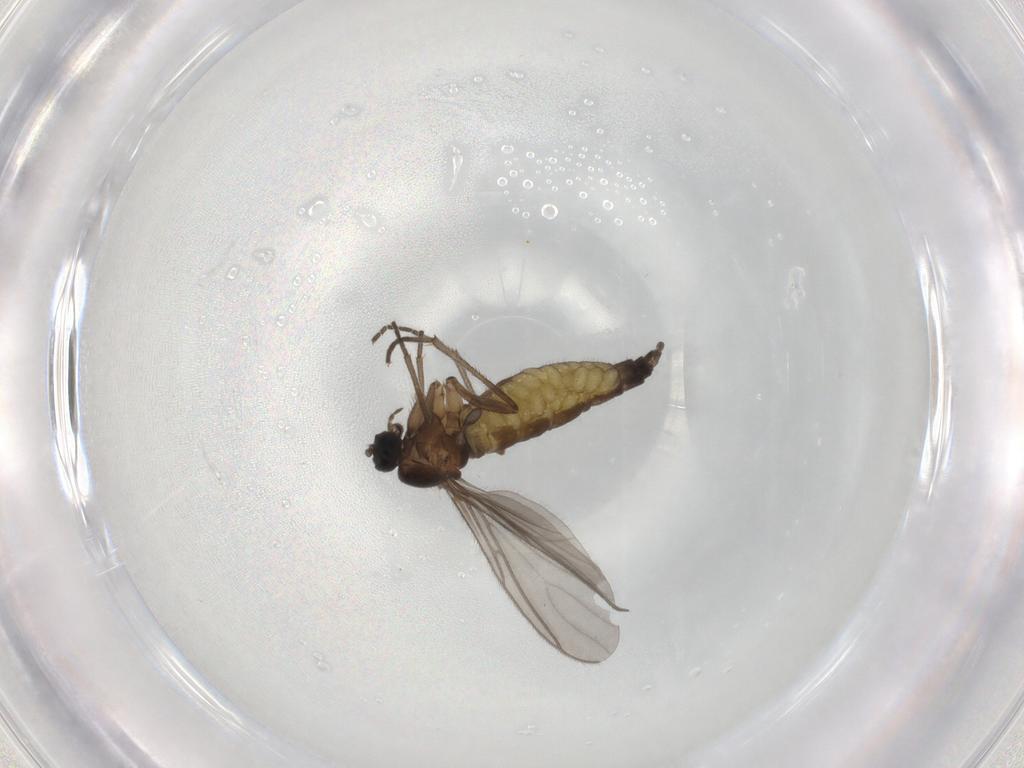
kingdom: Animalia
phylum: Arthropoda
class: Insecta
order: Diptera
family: Sciaridae
